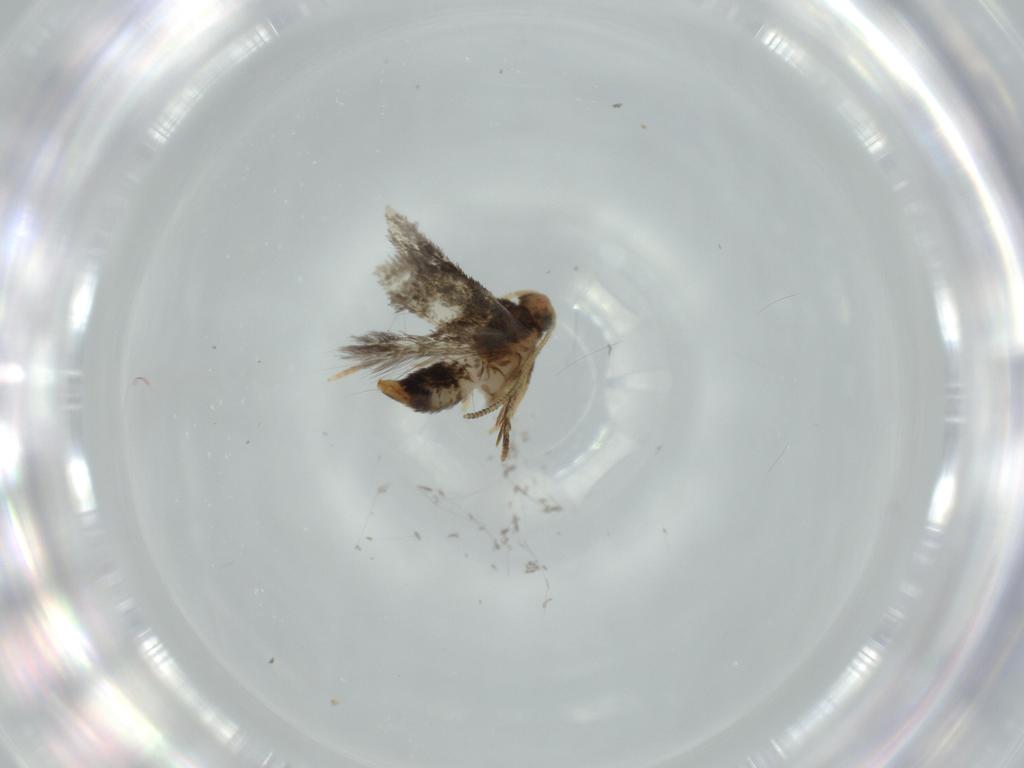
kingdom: Animalia
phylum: Arthropoda
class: Insecta
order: Lepidoptera
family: Nepticulidae
